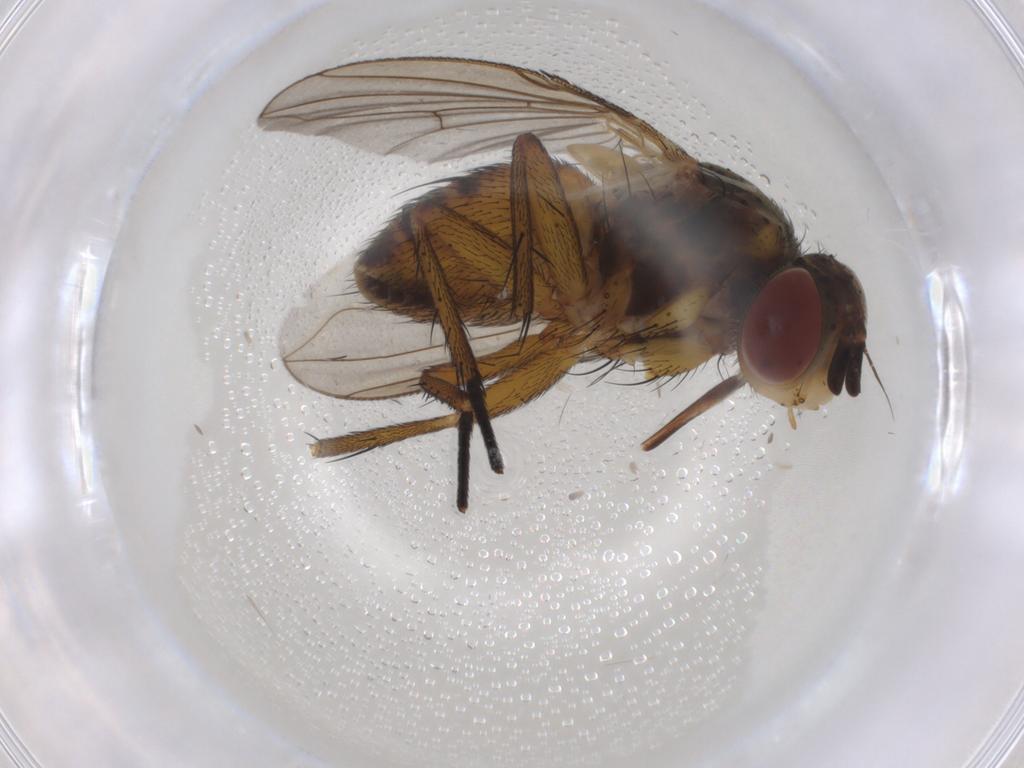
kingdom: Animalia
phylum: Arthropoda
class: Insecta
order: Diptera
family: Tachinidae
